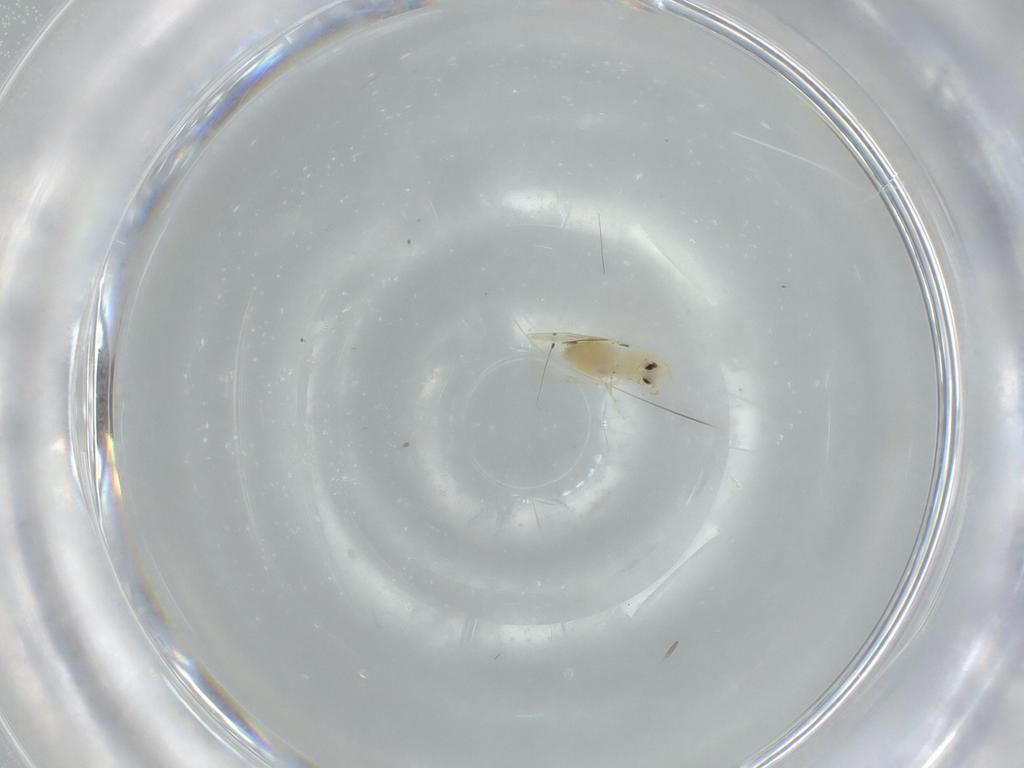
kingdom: Animalia
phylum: Arthropoda
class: Insecta
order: Hemiptera
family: Aleyrodidae
